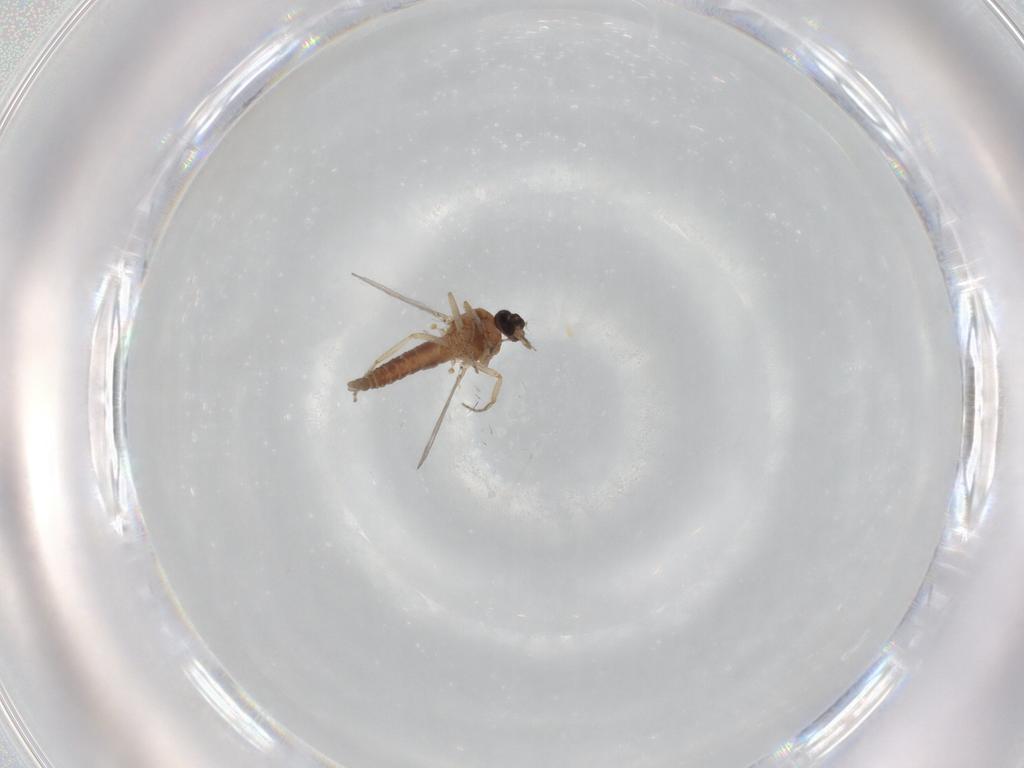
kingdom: Animalia
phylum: Arthropoda
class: Insecta
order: Diptera
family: Ceratopogonidae
